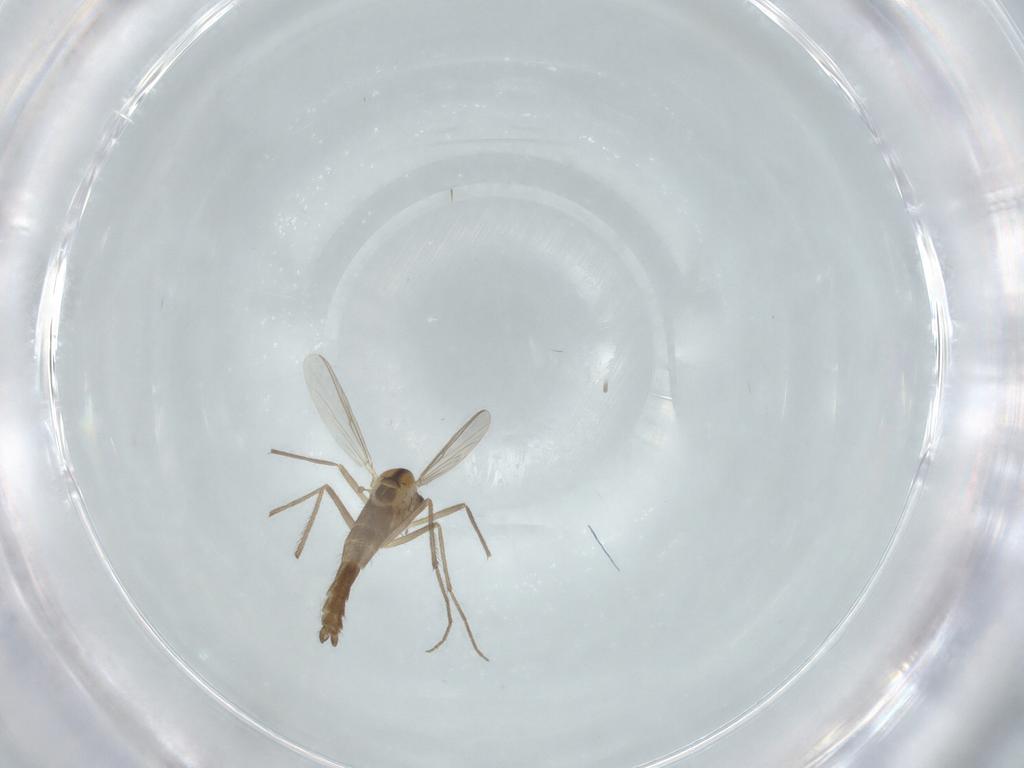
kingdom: Animalia
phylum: Arthropoda
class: Insecta
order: Diptera
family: Chironomidae
